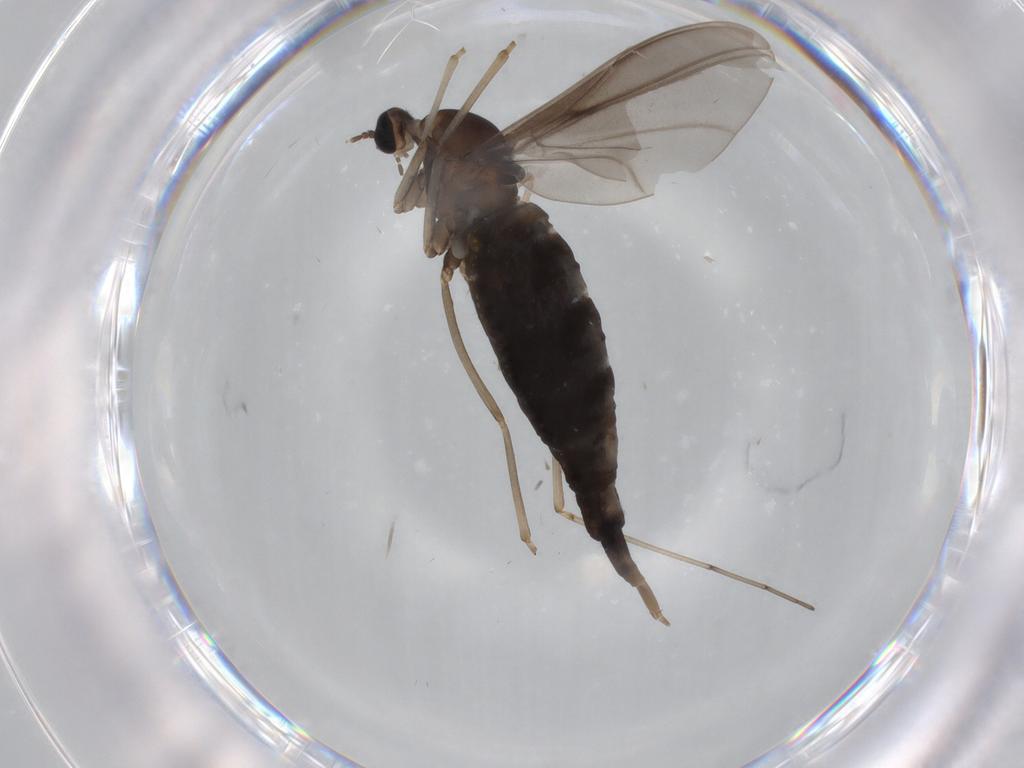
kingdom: Animalia
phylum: Arthropoda
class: Insecta
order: Diptera
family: Cecidomyiidae
